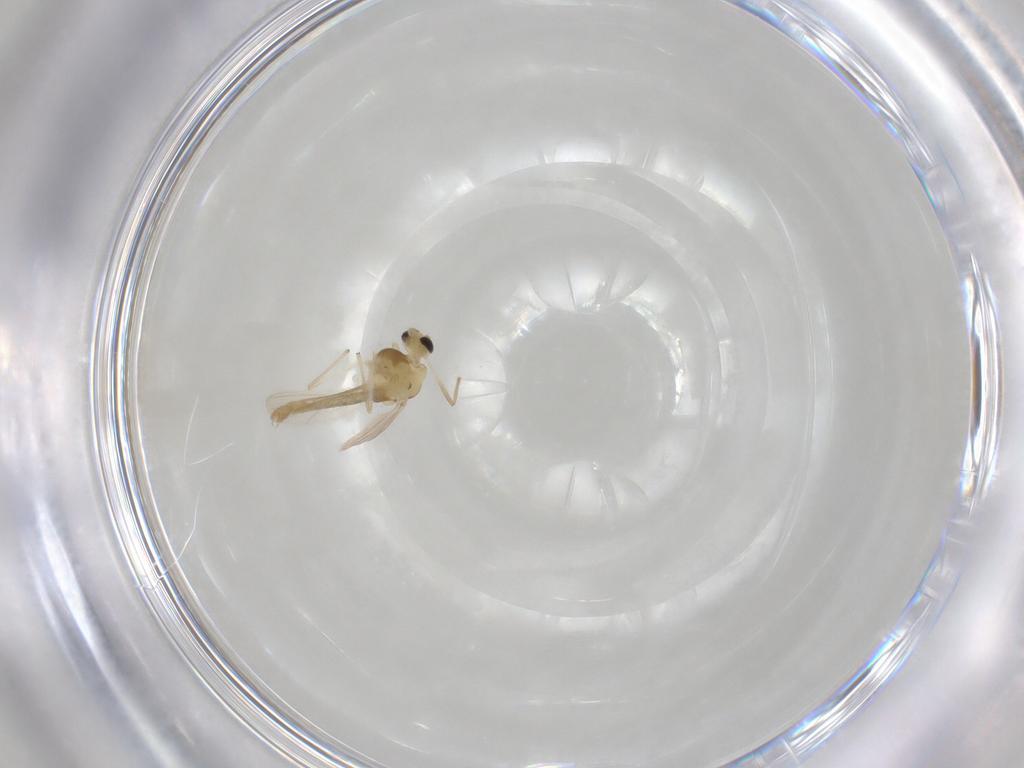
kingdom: Animalia
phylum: Arthropoda
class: Insecta
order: Diptera
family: Chironomidae
